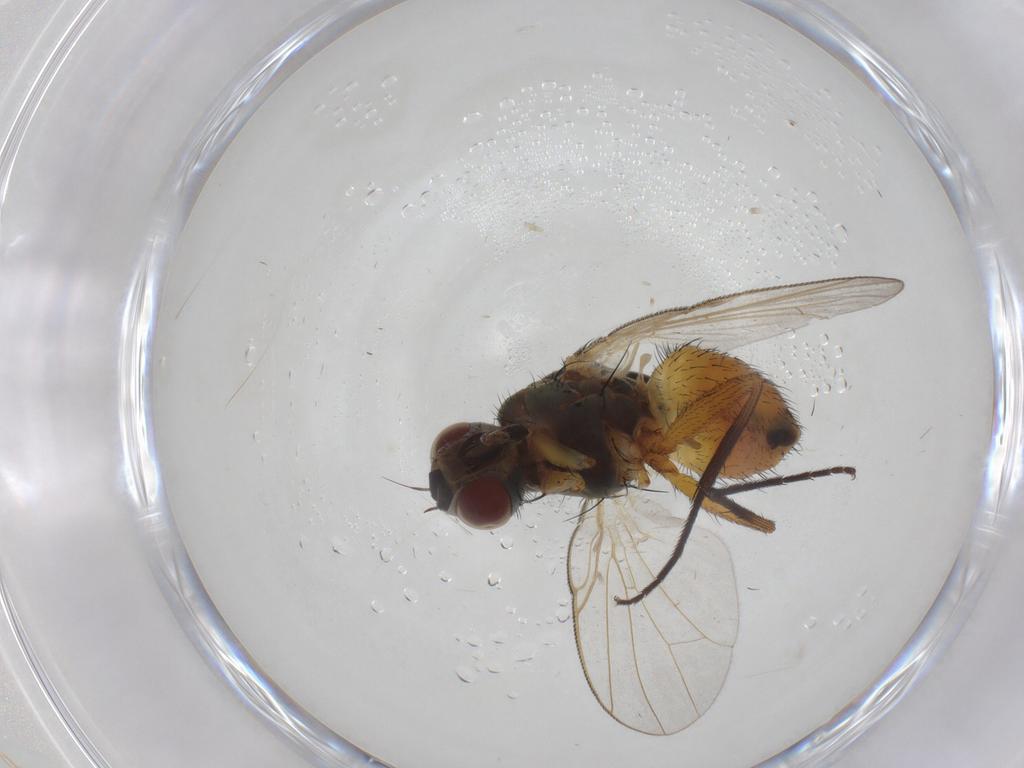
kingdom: Animalia
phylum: Arthropoda
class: Insecta
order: Diptera
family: Muscidae
